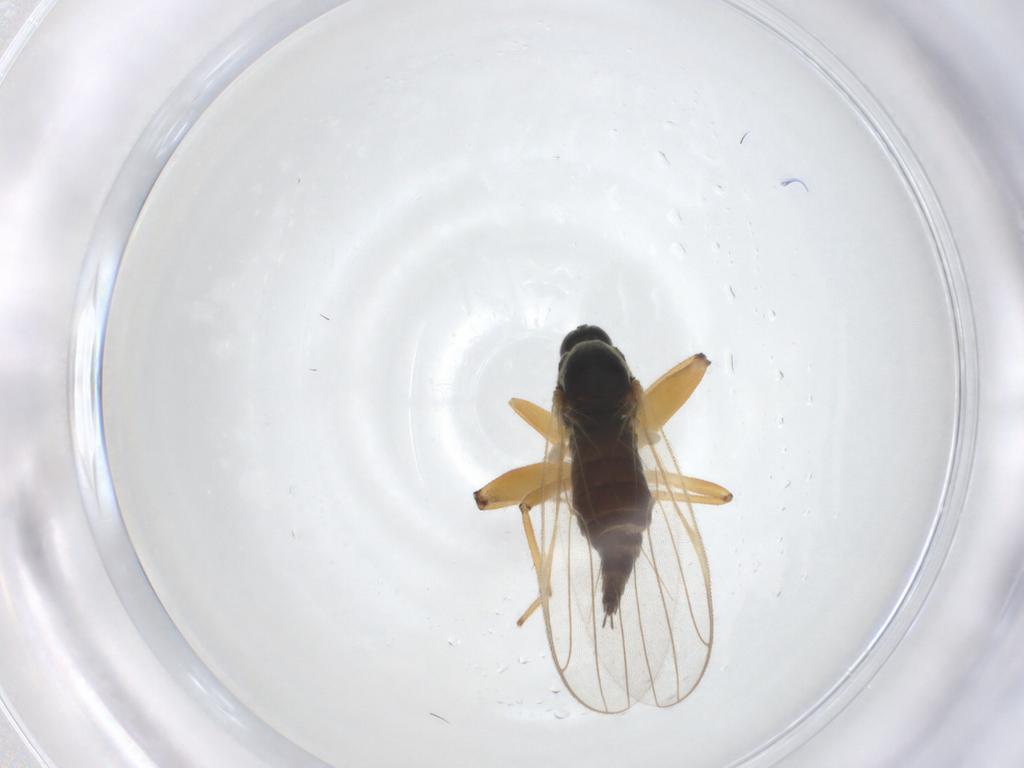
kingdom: Animalia
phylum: Arthropoda
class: Insecta
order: Diptera
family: Hybotidae
